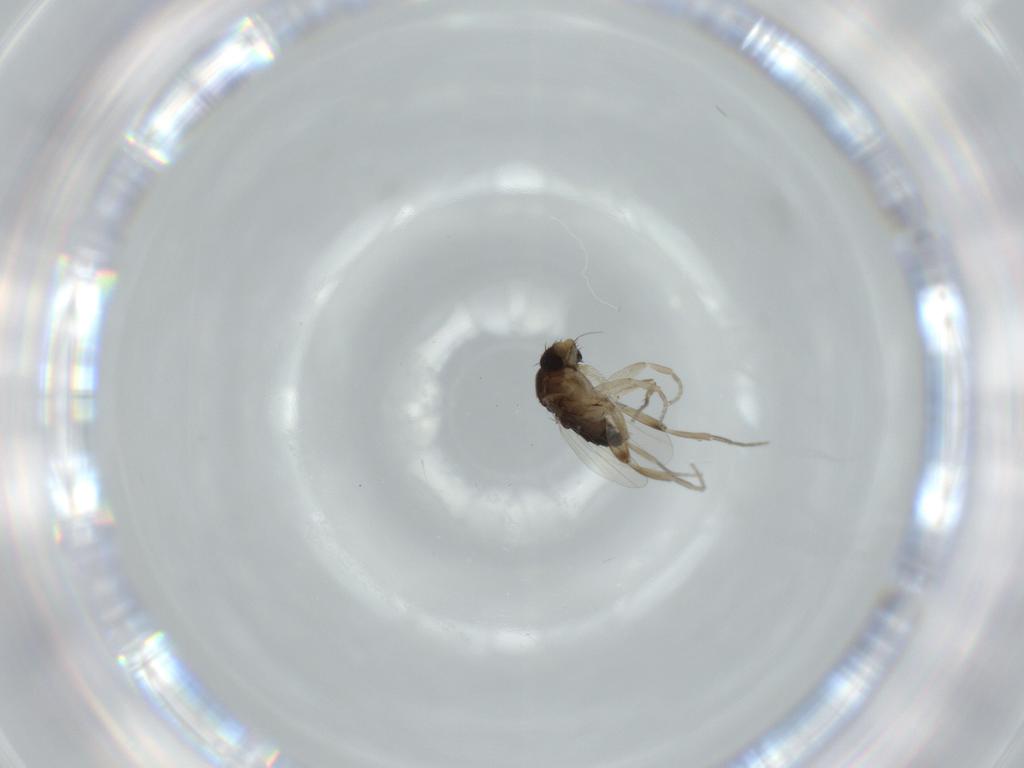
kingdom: Animalia
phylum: Arthropoda
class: Insecta
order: Diptera
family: Phoridae
